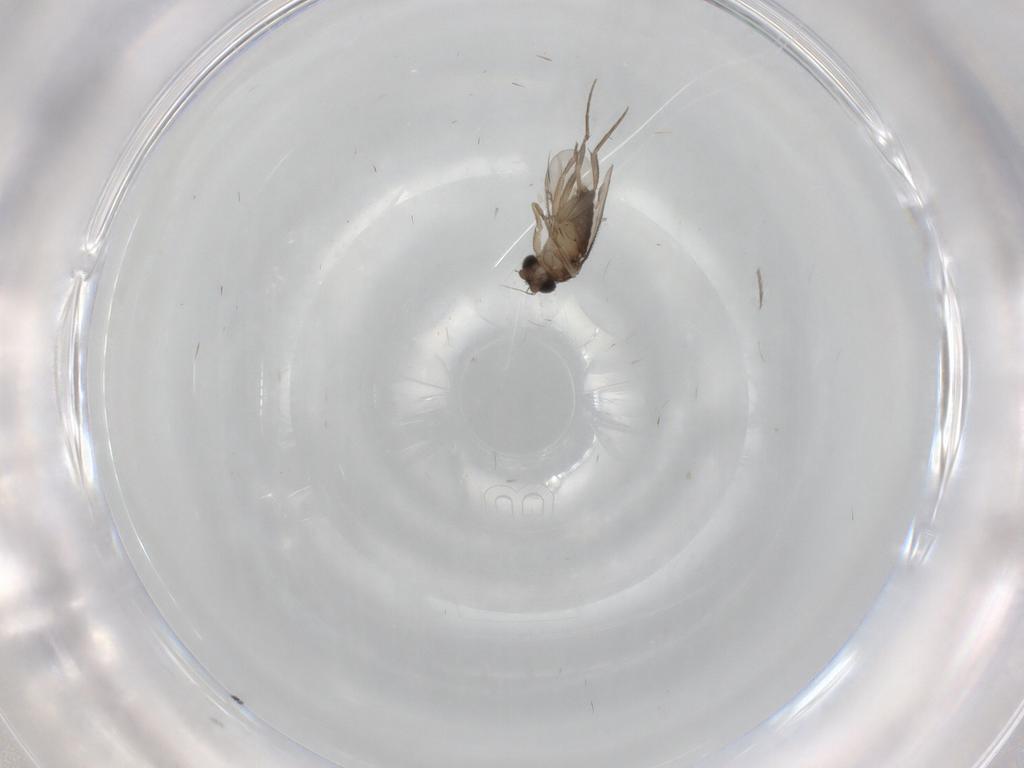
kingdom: Animalia
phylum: Arthropoda
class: Insecta
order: Diptera
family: Phoridae
